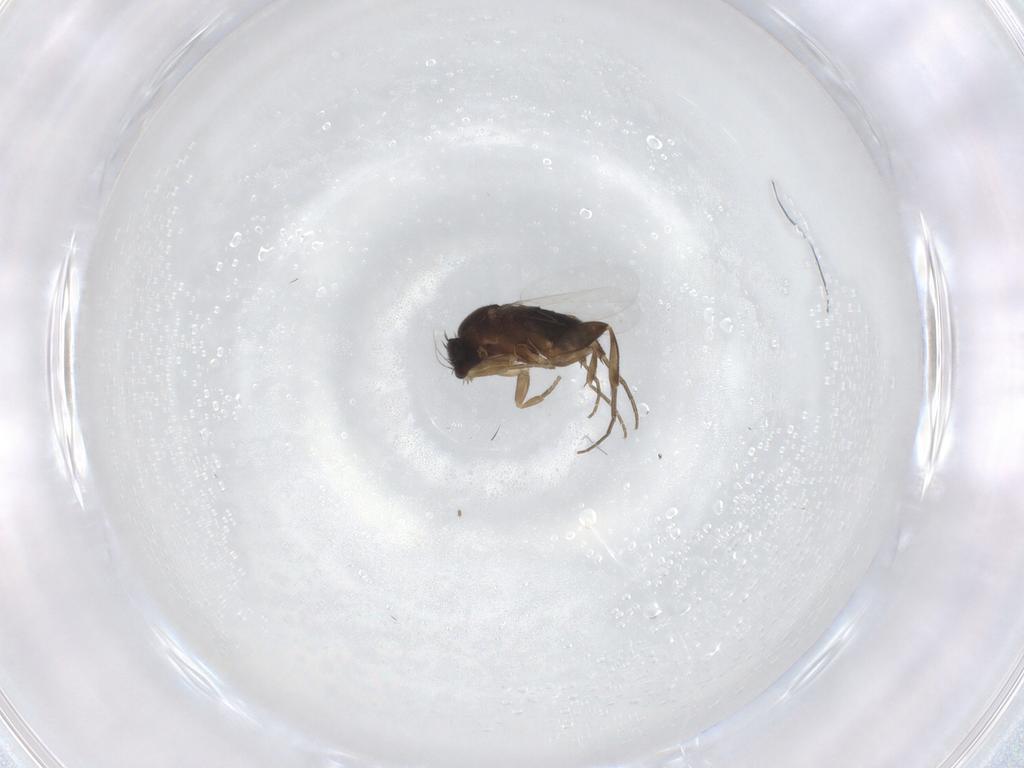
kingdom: Animalia
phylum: Arthropoda
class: Insecta
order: Diptera
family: Phoridae
